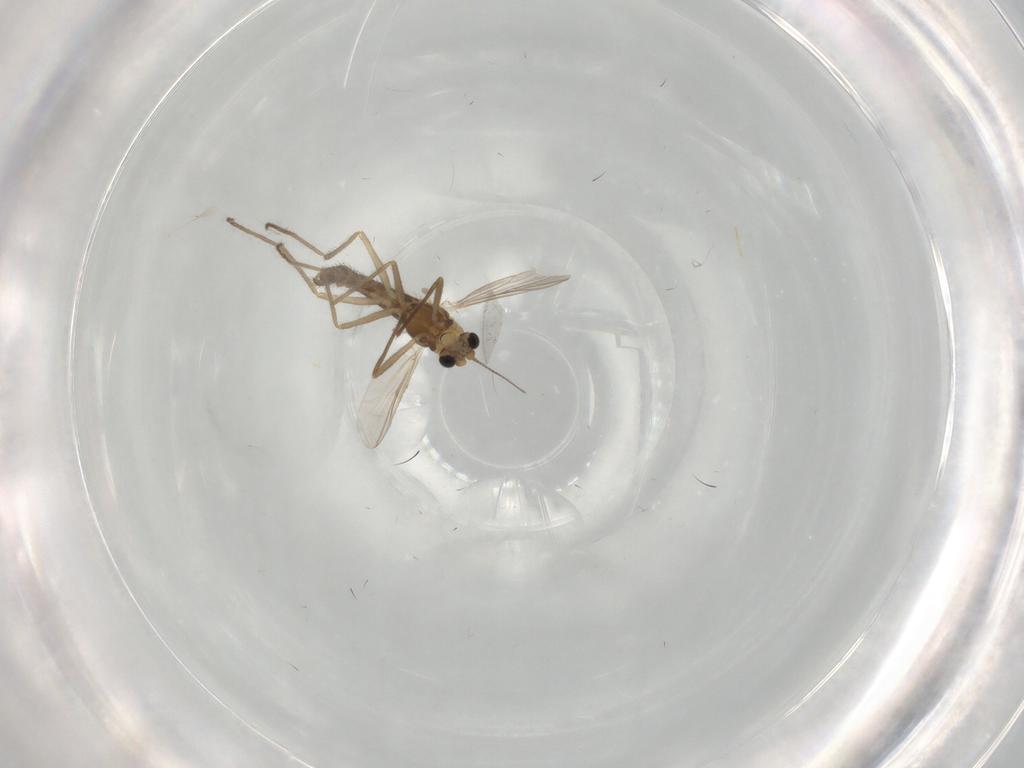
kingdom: Animalia
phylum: Arthropoda
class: Insecta
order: Diptera
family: Chironomidae
